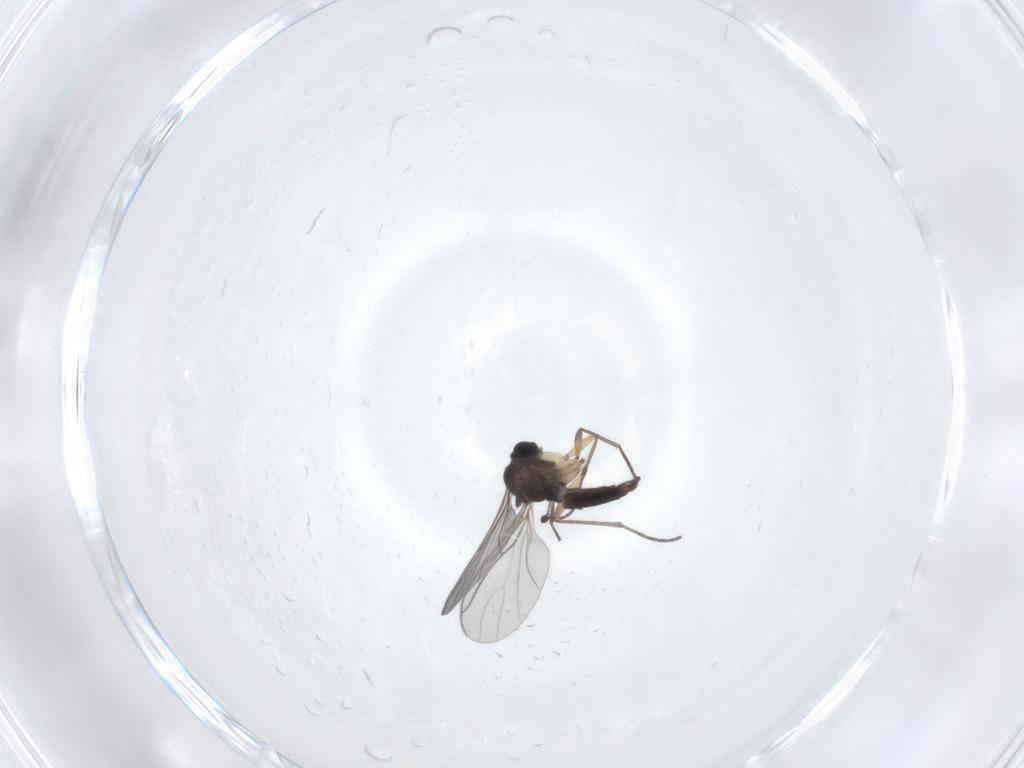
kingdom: Animalia
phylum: Arthropoda
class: Insecta
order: Diptera
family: Sciaridae
